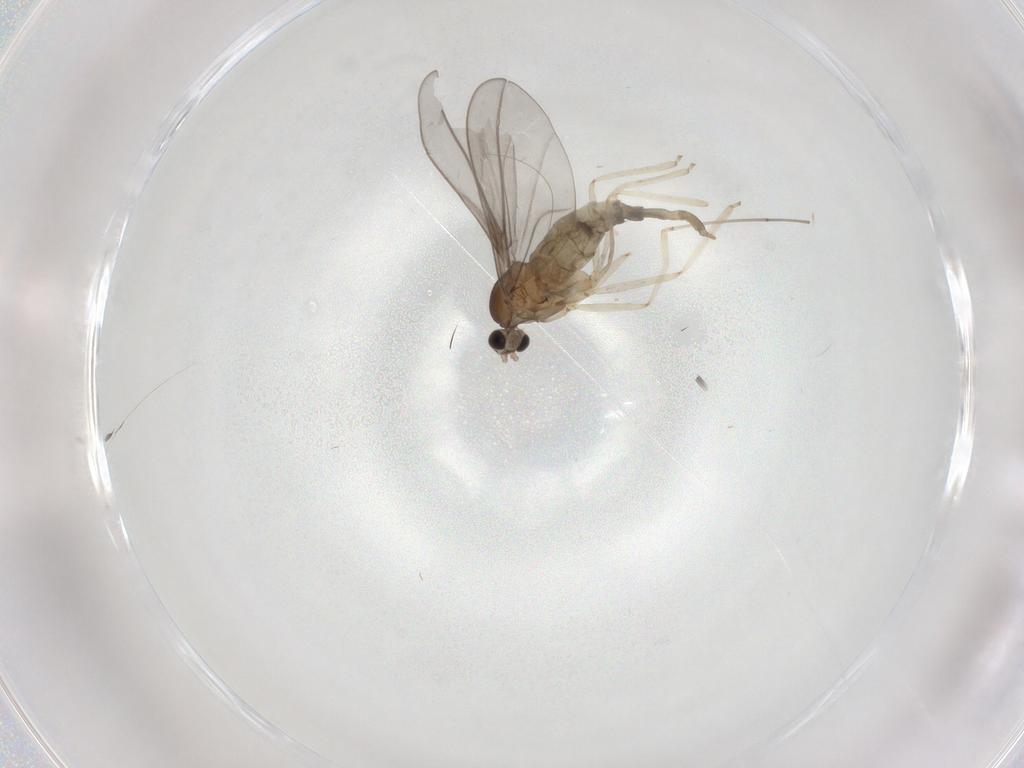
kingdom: Animalia
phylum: Arthropoda
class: Insecta
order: Diptera
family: Cecidomyiidae
